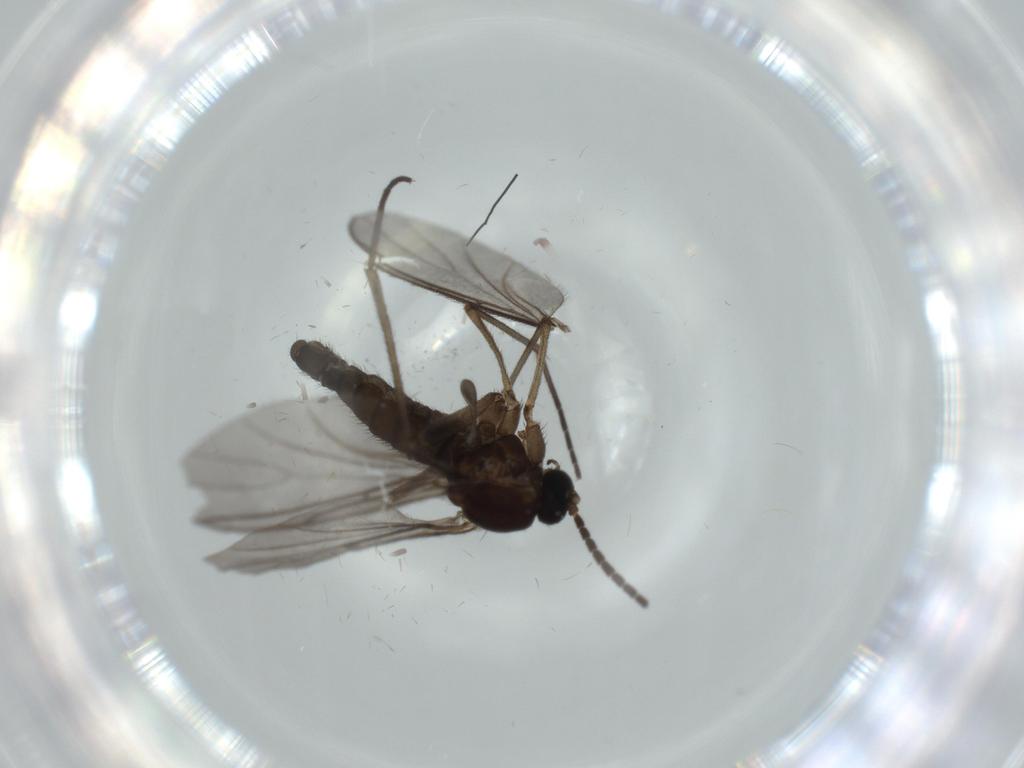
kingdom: Animalia
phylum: Arthropoda
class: Insecta
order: Diptera
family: Sciaridae
